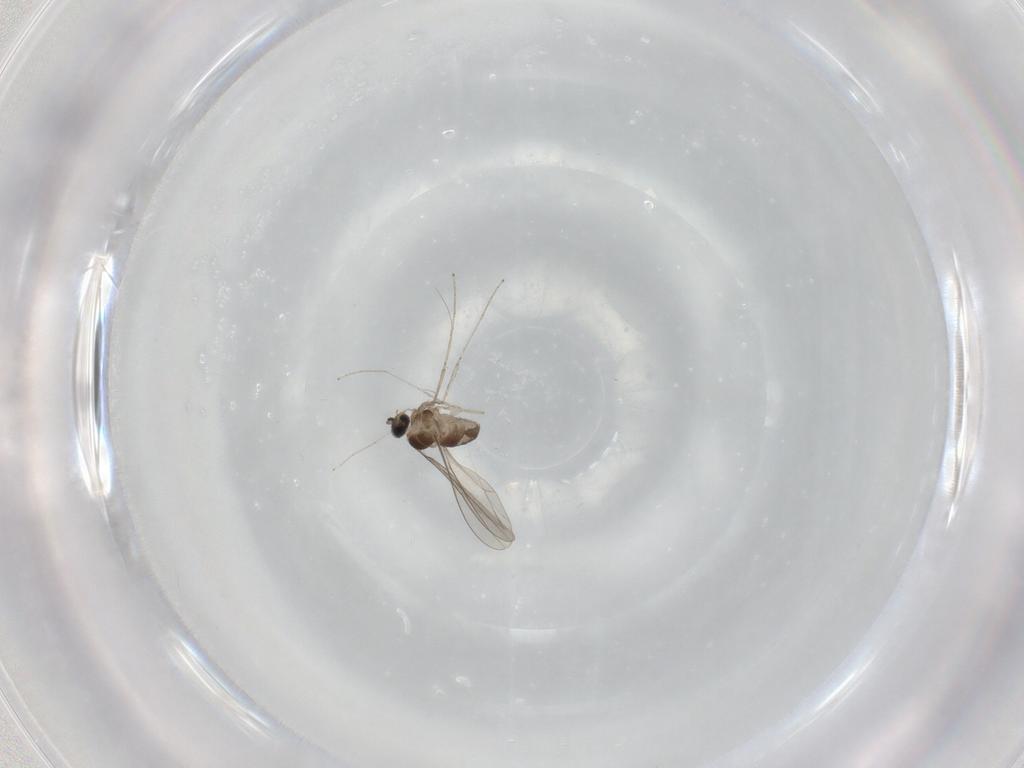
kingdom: Animalia
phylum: Arthropoda
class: Insecta
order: Diptera
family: Cecidomyiidae
